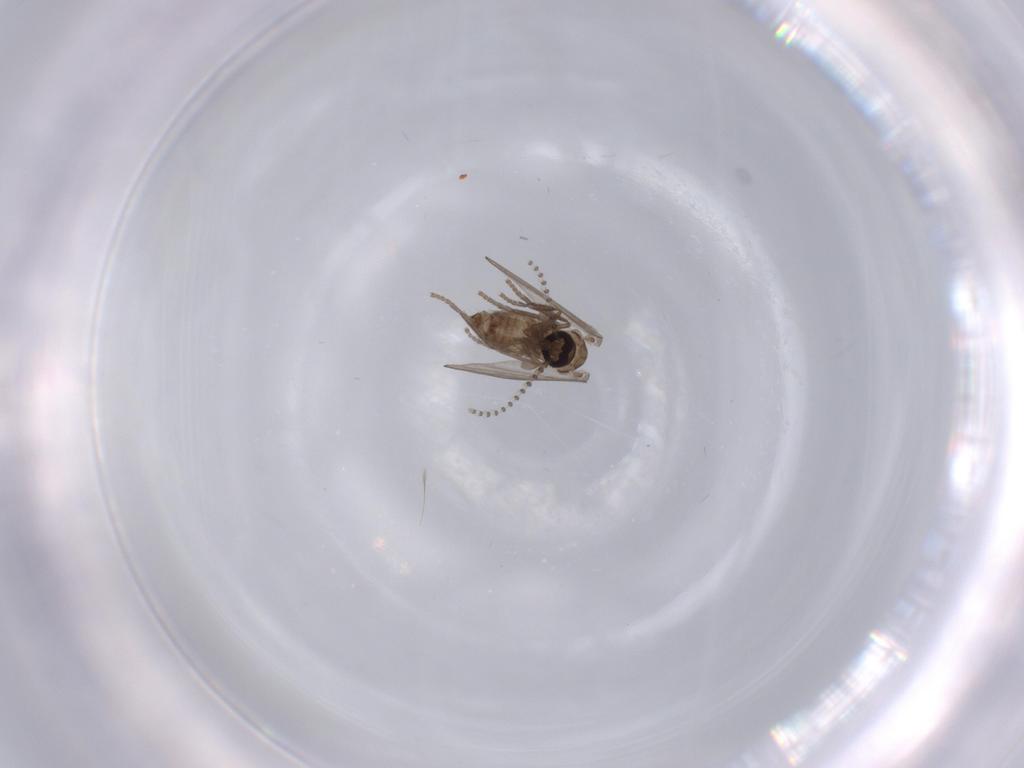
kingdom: Animalia
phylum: Arthropoda
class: Insecta
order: Diptera
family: Psychodidae
